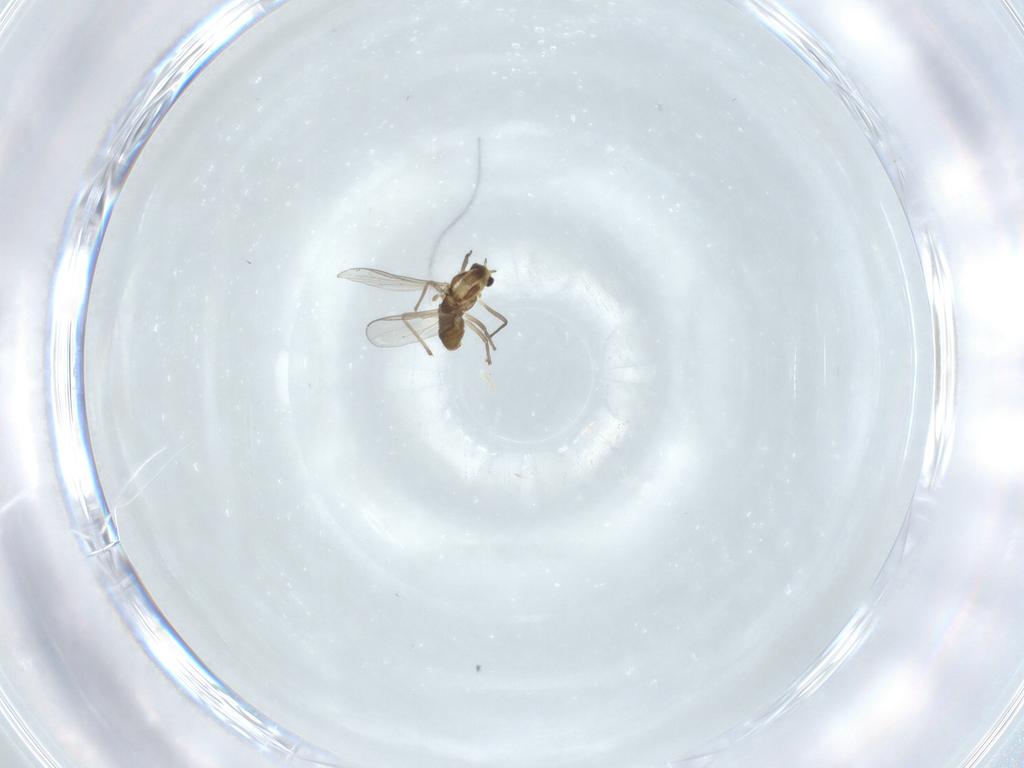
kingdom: Animalia
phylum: Arthropoda
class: Insecta
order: Diptera
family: Chironomidae
